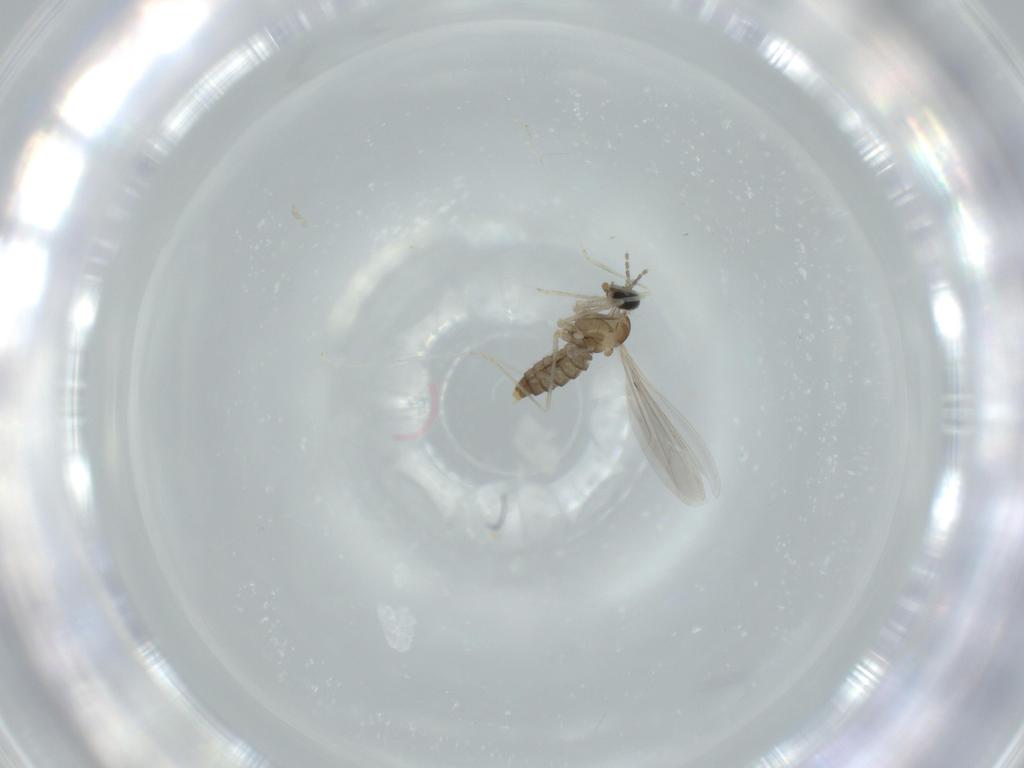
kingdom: Animalia
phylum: Arthropoda
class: Insecta
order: Diptera
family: Cecidomyiidae
